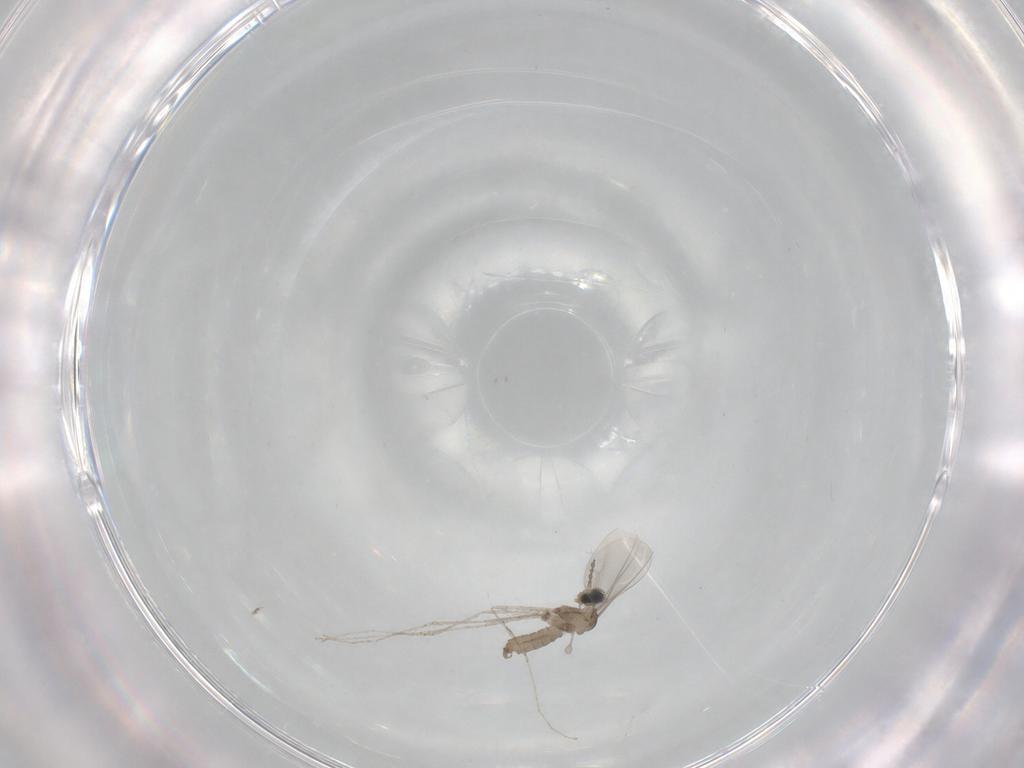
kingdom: Animalia
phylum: Arthropoda
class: Insecta
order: Diptera
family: Cecidomyiidae
